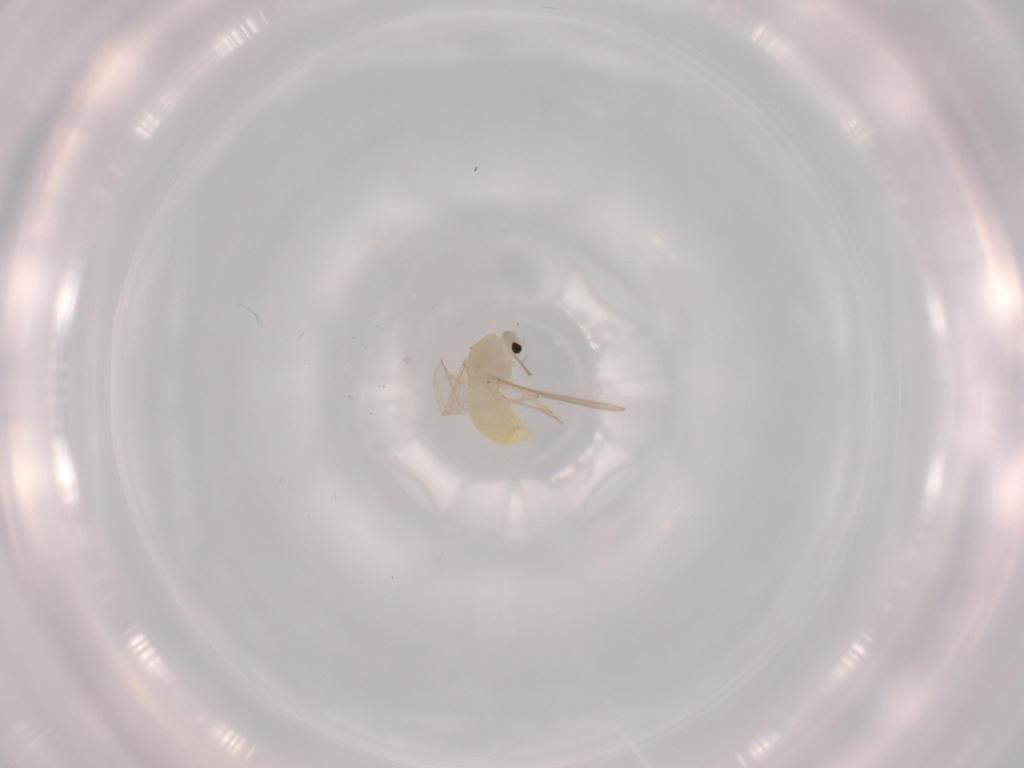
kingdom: Animalia
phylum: Arthropoda
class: Insecta
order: Diptera
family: Chironomidae
